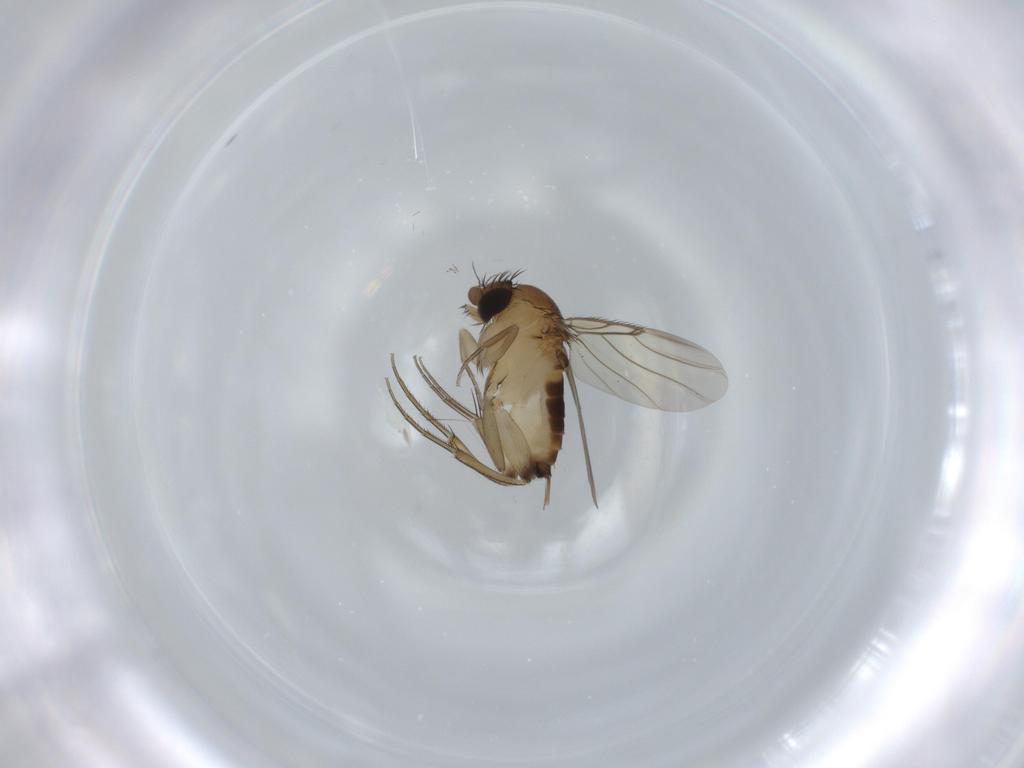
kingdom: Animalia
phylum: Arthropoda
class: Insecta
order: Diptera
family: Phoridae
